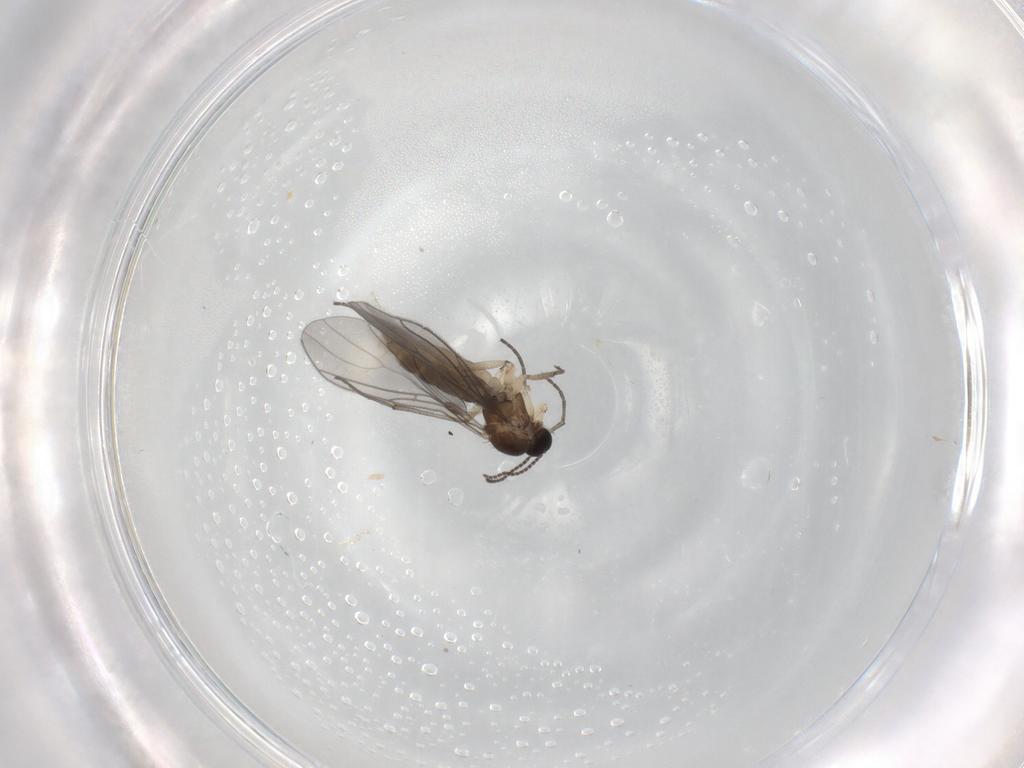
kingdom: Animalia
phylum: Arthropoda
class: Insecta
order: Diptera
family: Sciaridae
